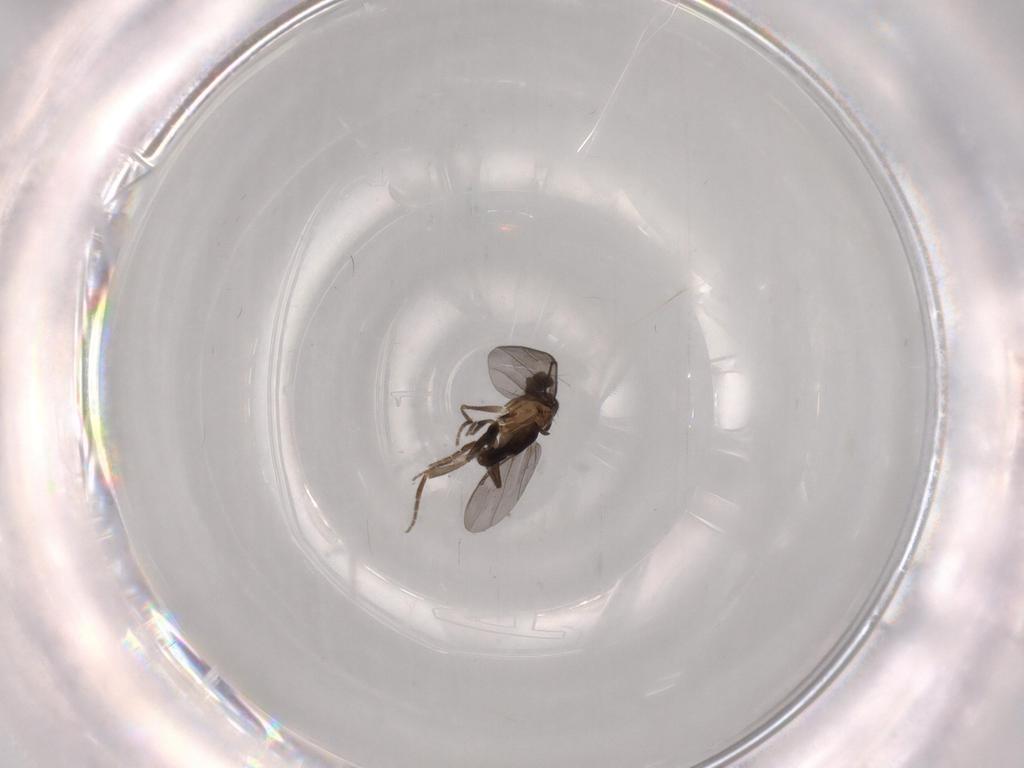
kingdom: Animalia
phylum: Arthropoda
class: Insecta
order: Diptera
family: Phoridae
